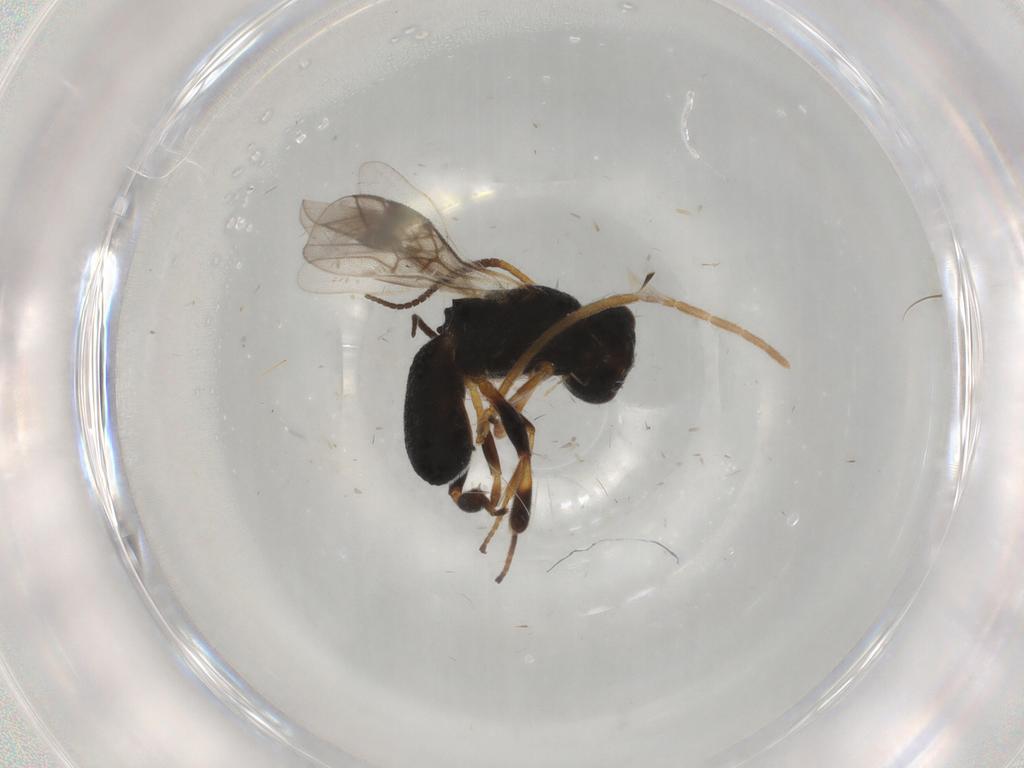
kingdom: Animalia
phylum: Arthropoda
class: Insecta
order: Hymenoptera
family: Braconidae
